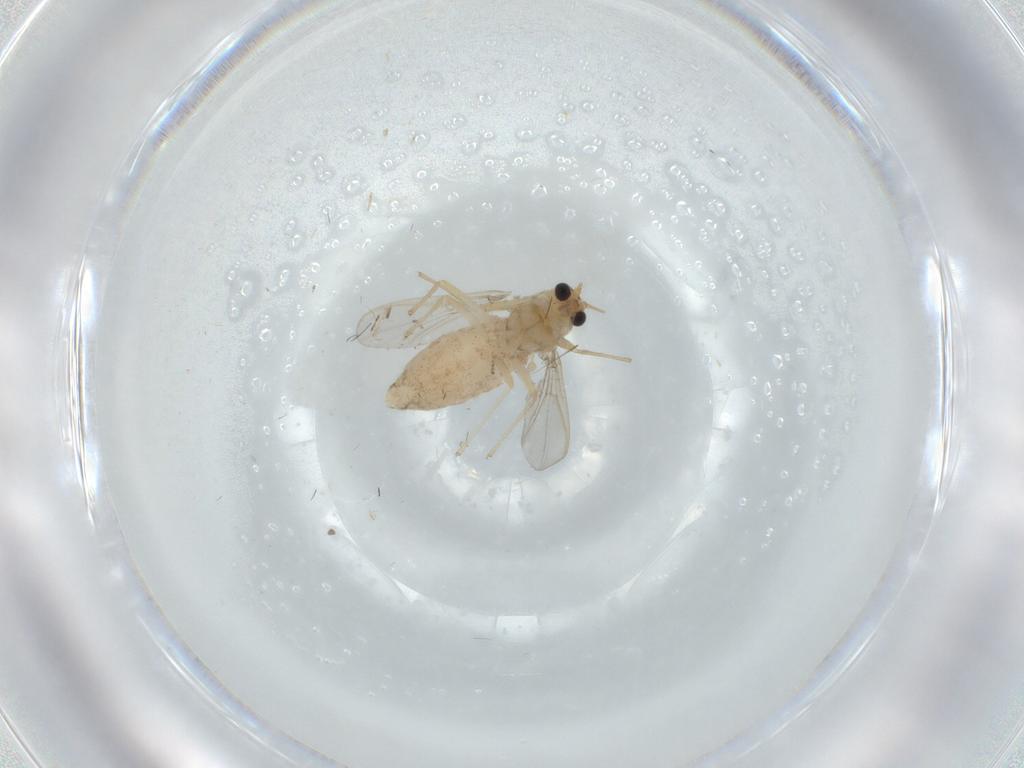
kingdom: Animalia
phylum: Arthropoda
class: Insecta
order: Diptera
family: Chironomidae
